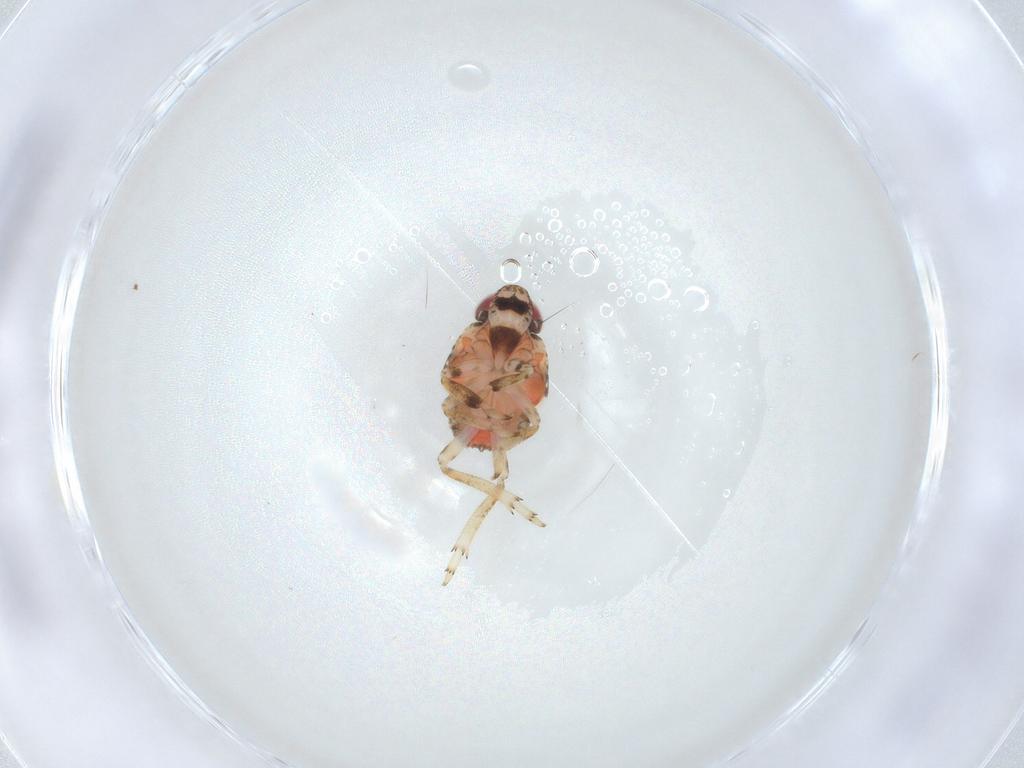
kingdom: Animalia
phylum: Arthropoda
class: Insecta
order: Hemiptera
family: Issidae
